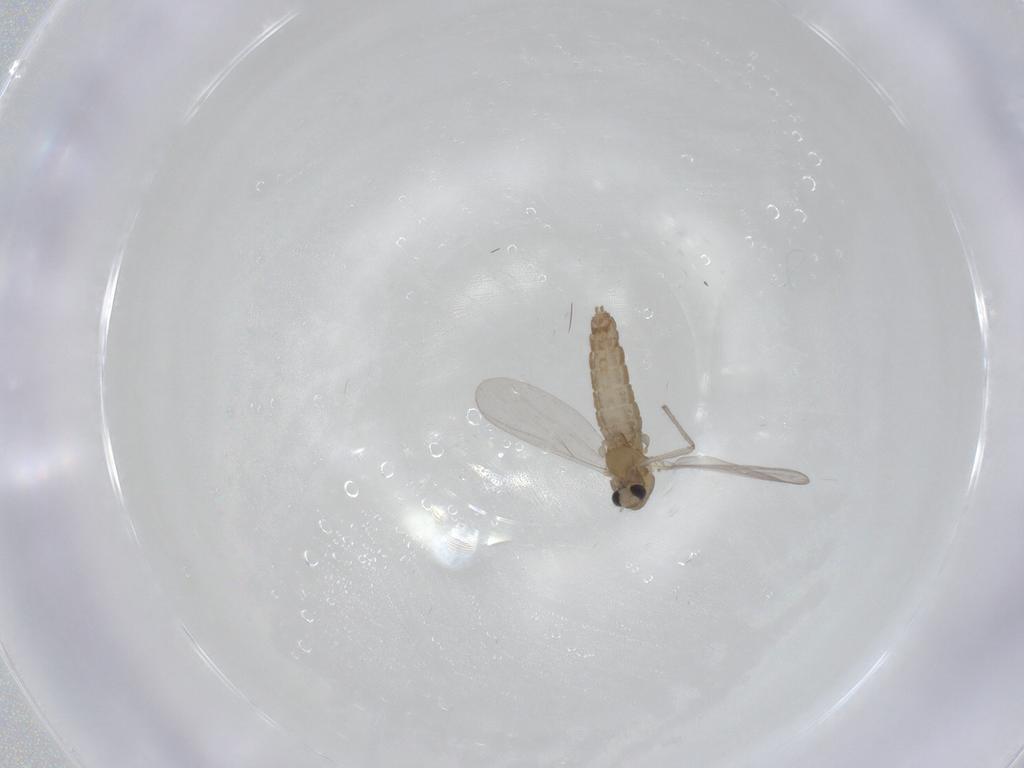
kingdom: Animalia
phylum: Arthropoda
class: Insecta
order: Diptera
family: Chironomidae
